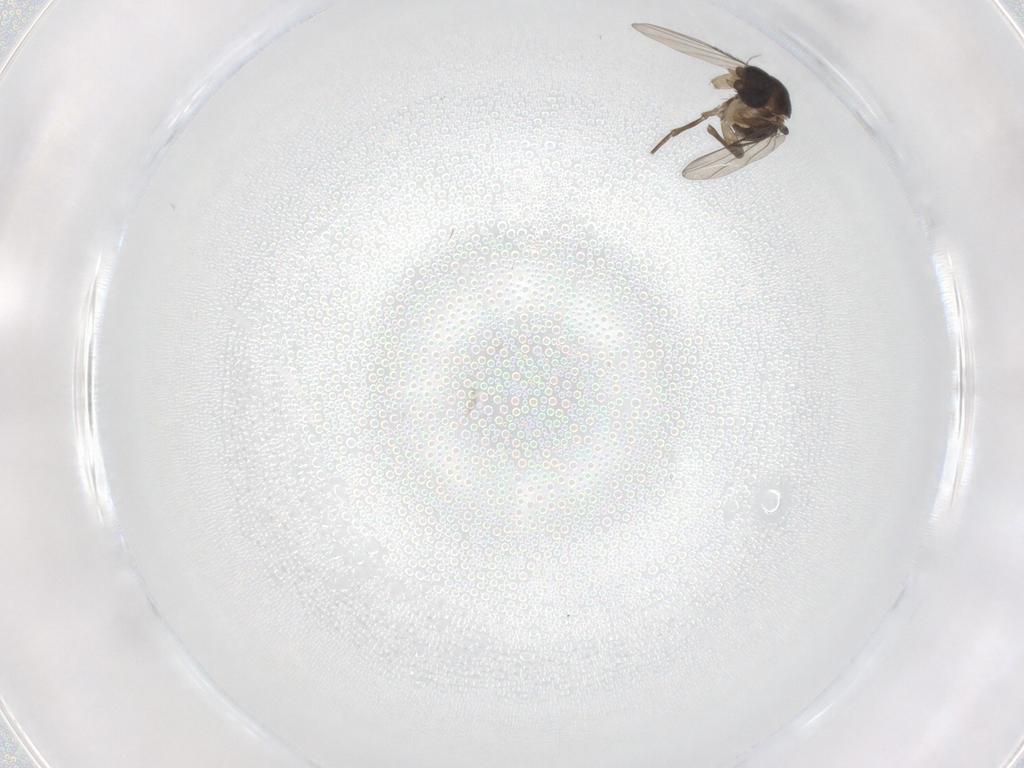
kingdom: Animalia
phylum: Arthropoda
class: Insecta
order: Diptera
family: Phoridae
